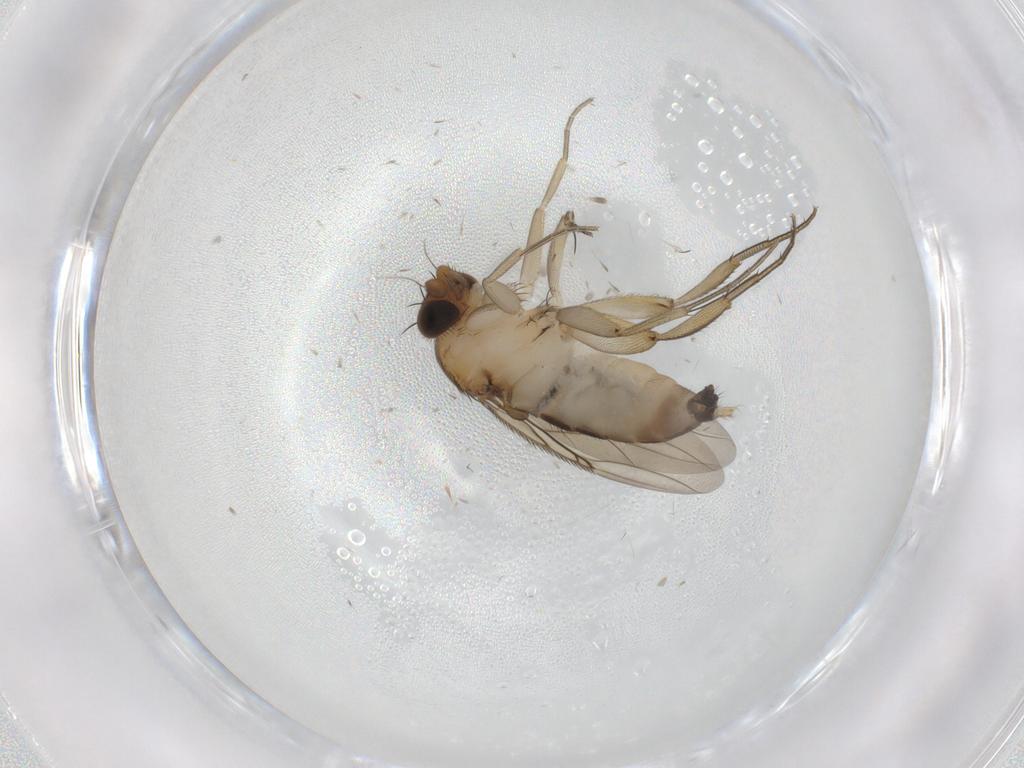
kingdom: Animalia
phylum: Arthropoda
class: Insecta
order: Diptera
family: Phoridae
